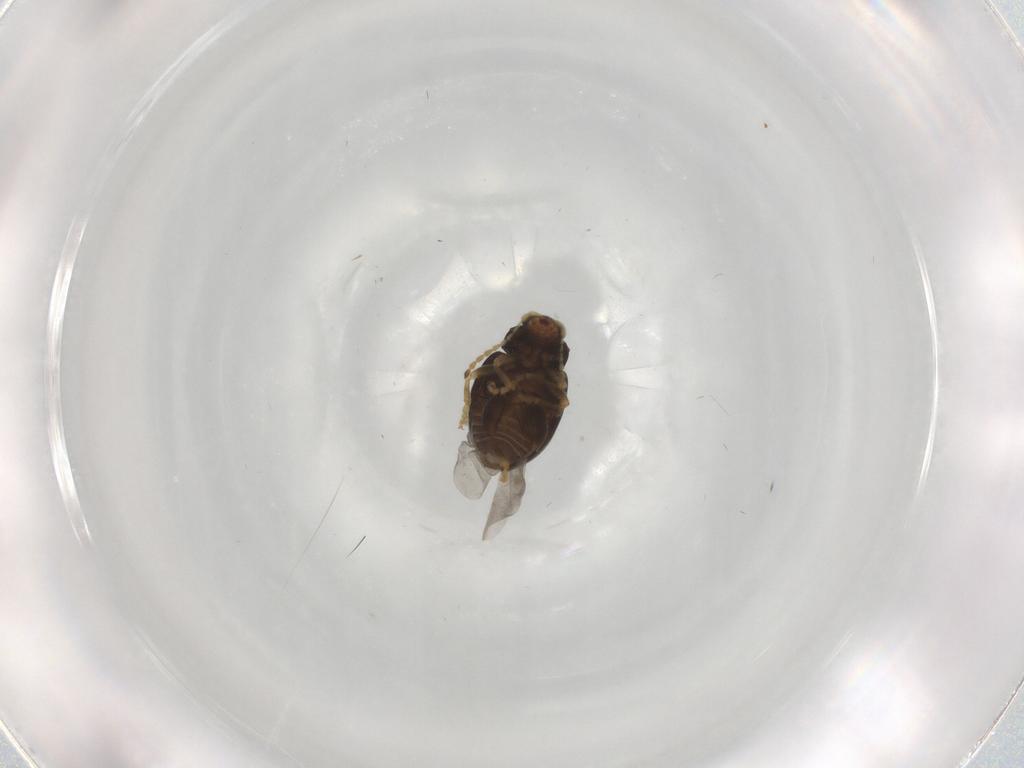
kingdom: Animalia
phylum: Arthropoda
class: Insecta
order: Coleoptera
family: Chrysomelidae
